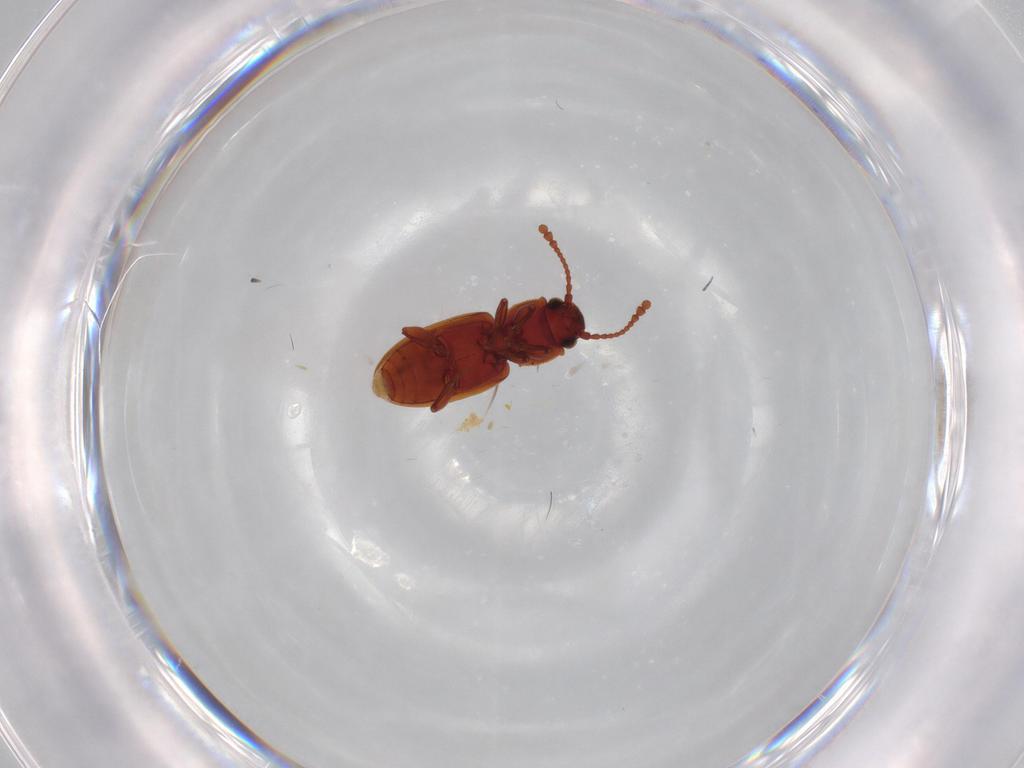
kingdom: Animalia
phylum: Arthropoda
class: Insecta
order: Coleoptera
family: Silvanidae
